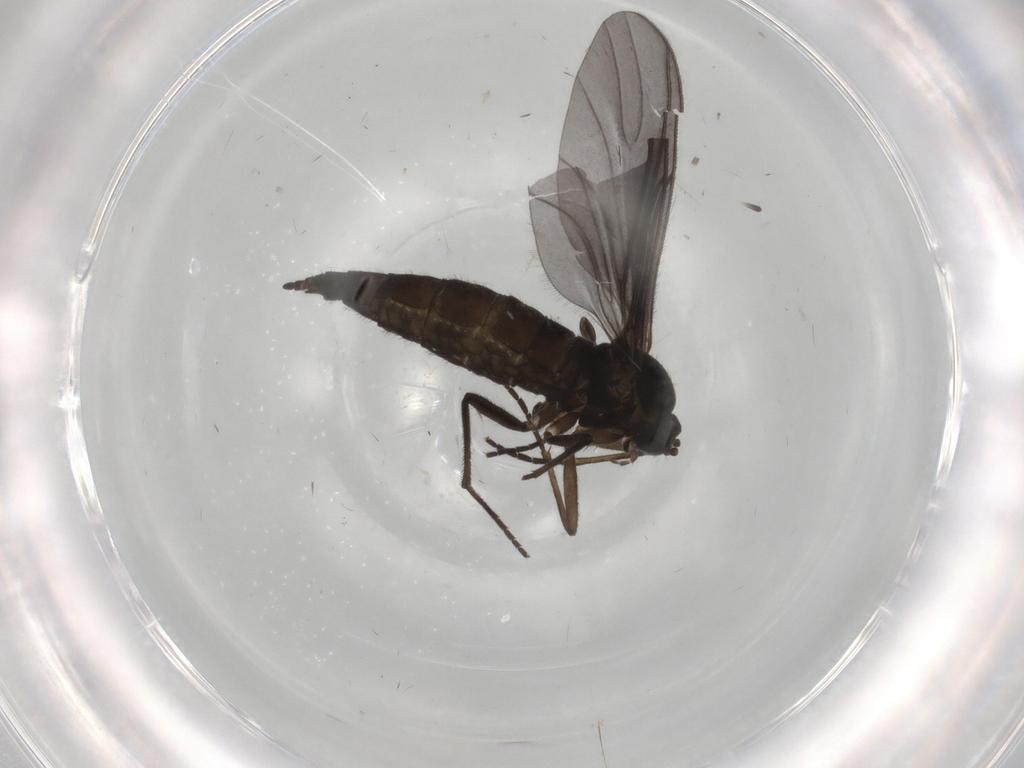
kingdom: Animalia
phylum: Arthropoda
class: Insecta
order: Diptera
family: Sciaridae
